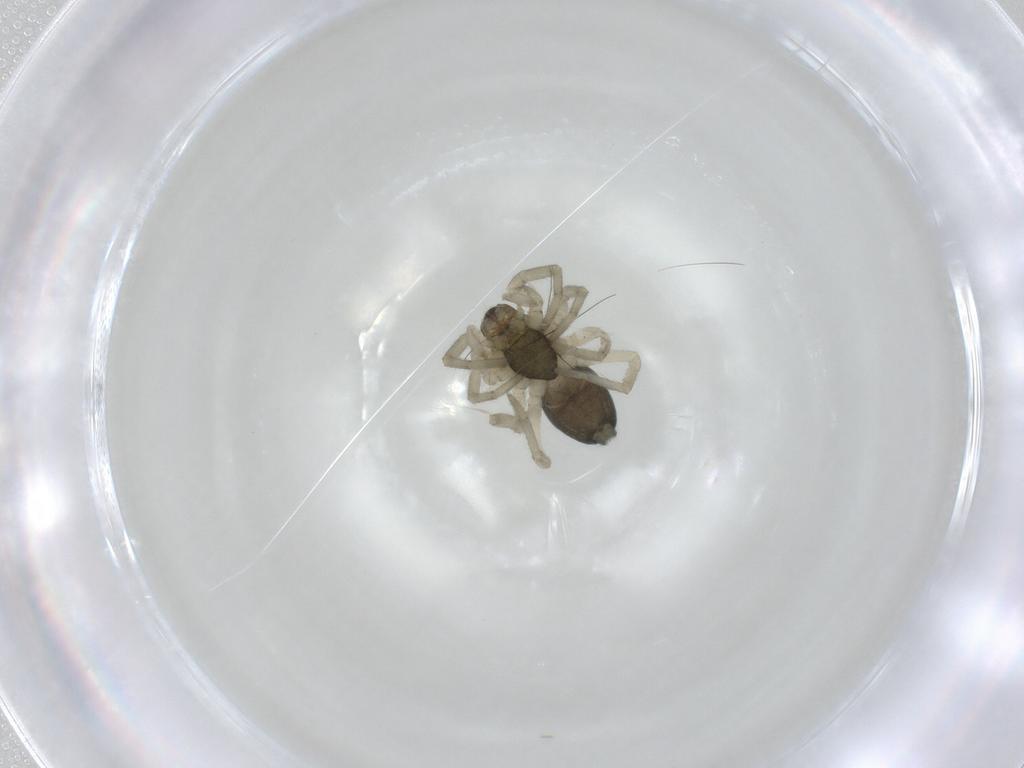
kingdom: Animalia
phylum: Arthropoda
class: Arachnida
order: Araneae
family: Trachelidae
